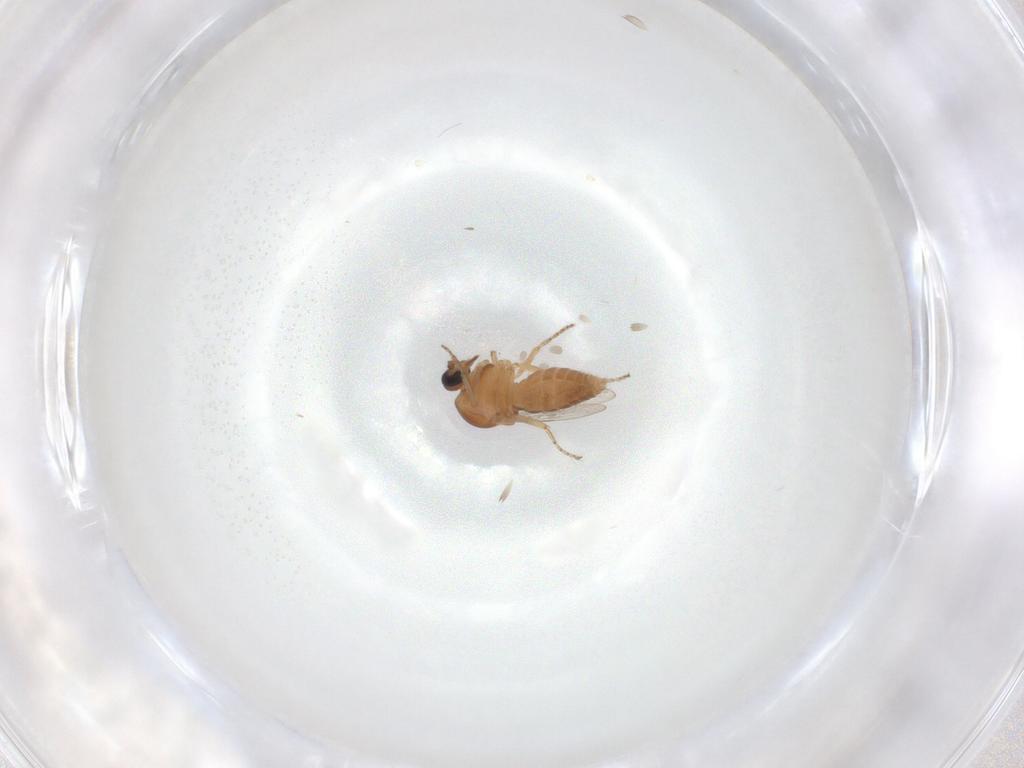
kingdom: Animalia
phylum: Arthropoda
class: Insecta
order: Diptera
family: Ceratopogonidae
